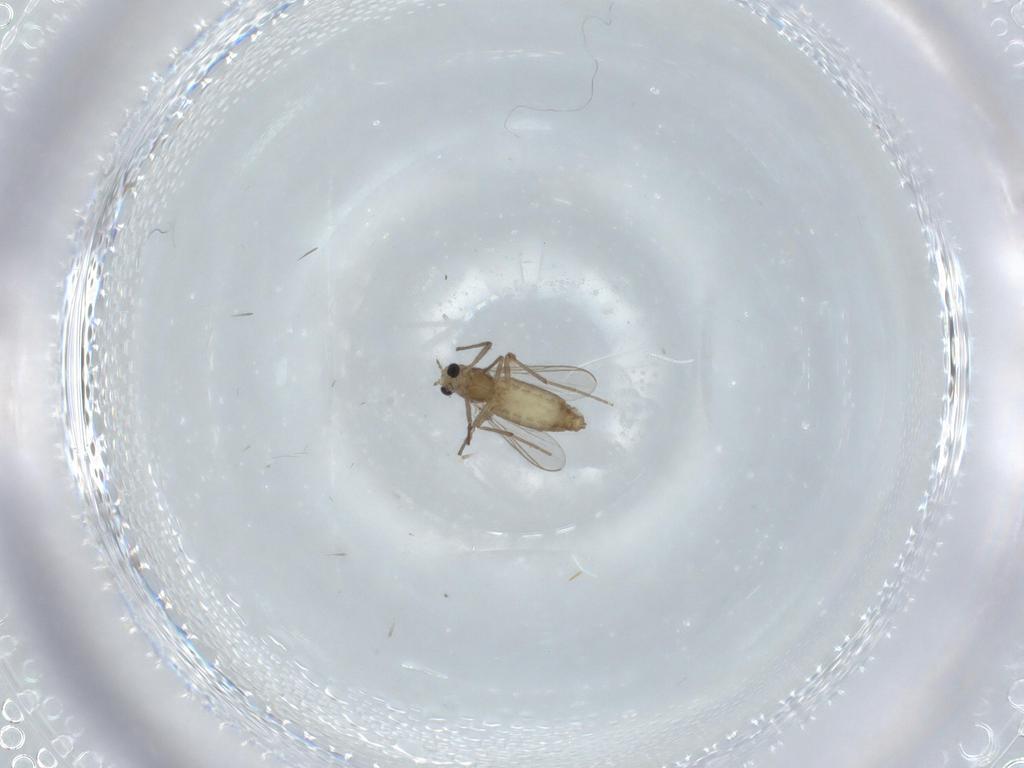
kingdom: Animalia
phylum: Arthropoda
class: Insecta
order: Diptera
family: Chironomidae
